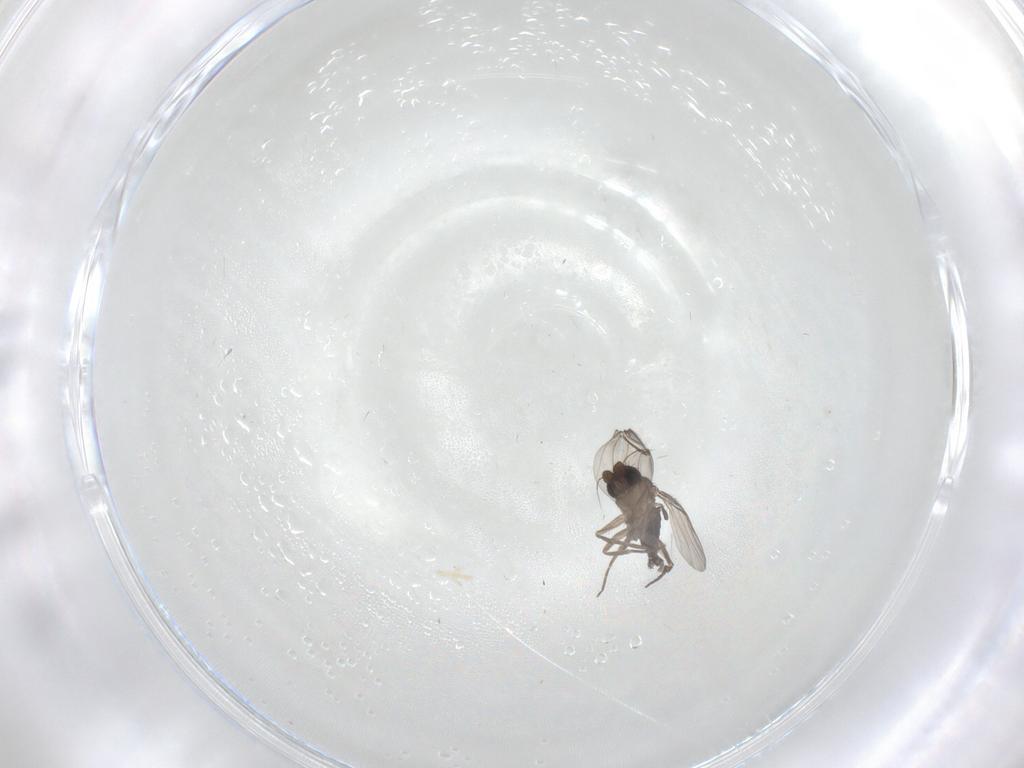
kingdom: Animalia
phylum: Arthropoda
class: Insecta
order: Diptera
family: Phoridae
